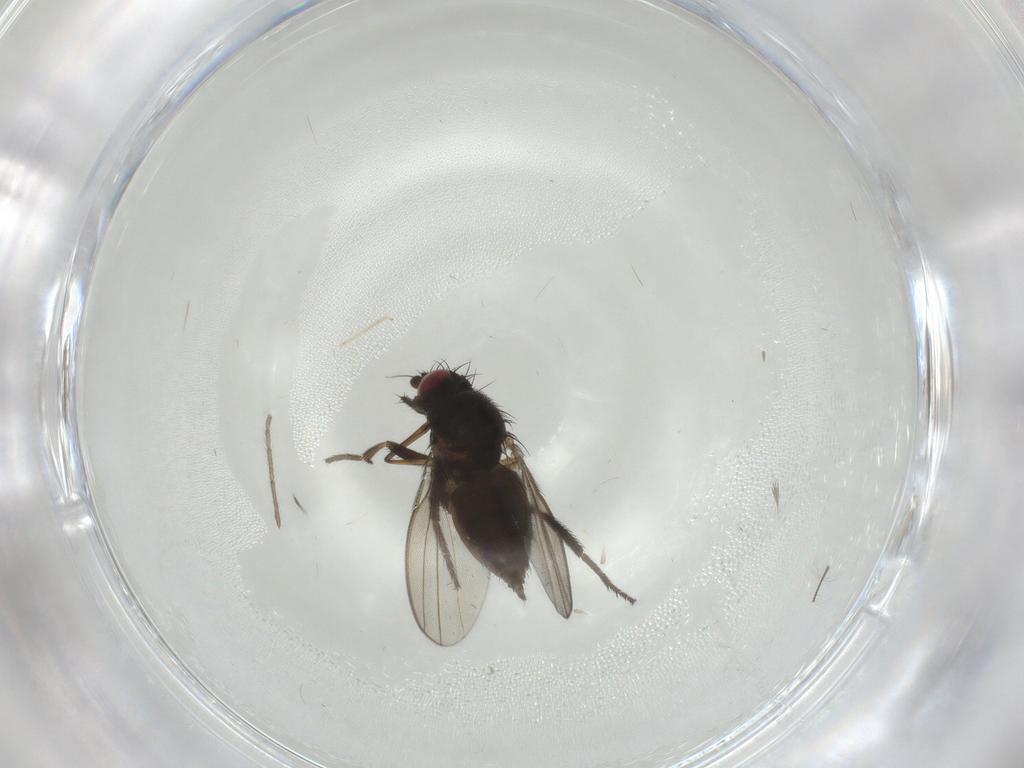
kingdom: Animalia
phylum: Arthropoda
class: Insecta
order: Diptera
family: Milichiidae
